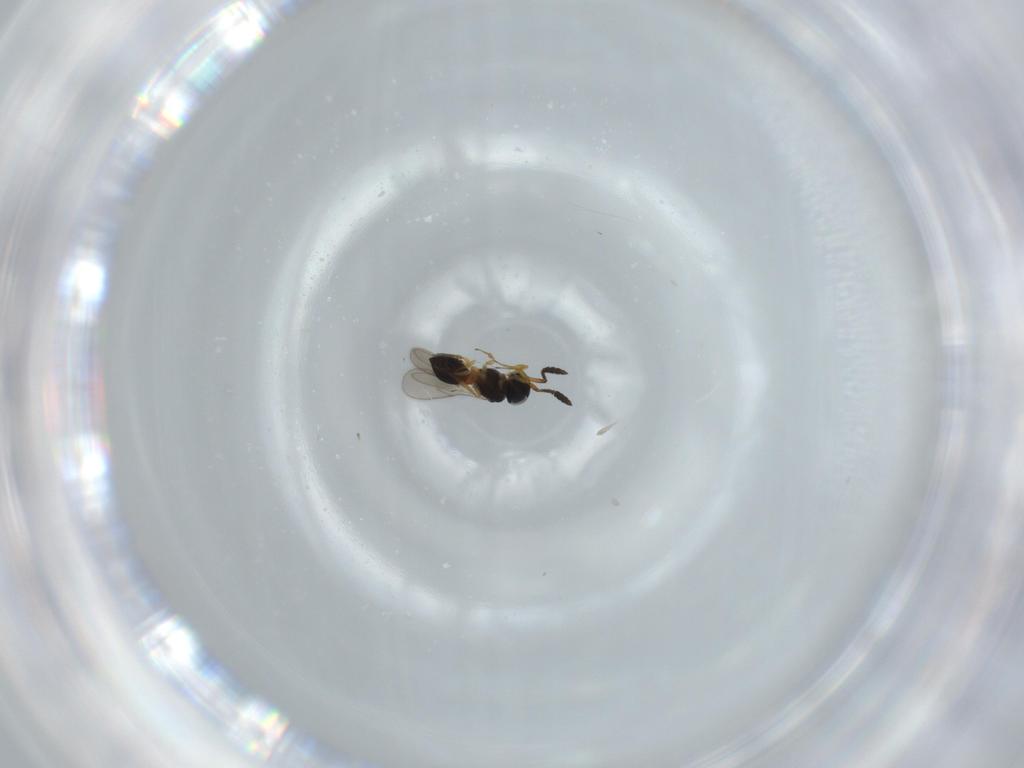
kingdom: Animalia
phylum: Arthropoda
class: Insecta
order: Hymenoptera
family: Scelionidae
